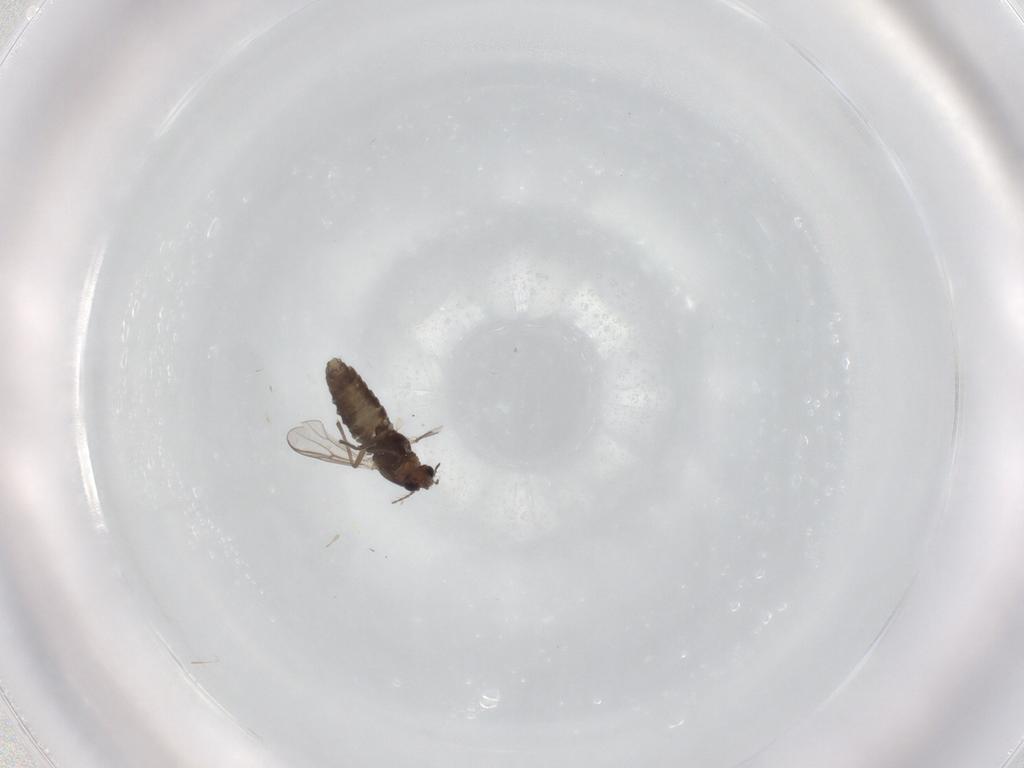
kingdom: Animalia
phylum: Arthropoda
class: Insecta
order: Diptera
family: Chironomidae
